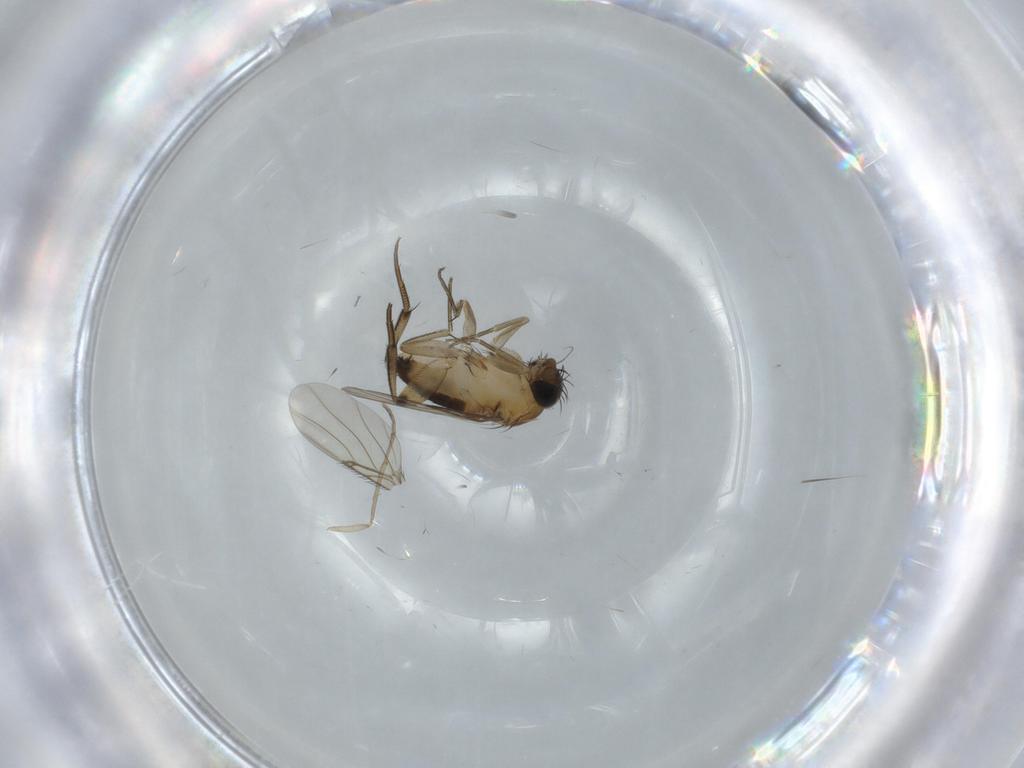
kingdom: Animalia
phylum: Arthropoda
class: Insecta
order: Diptera
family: Phoridae
